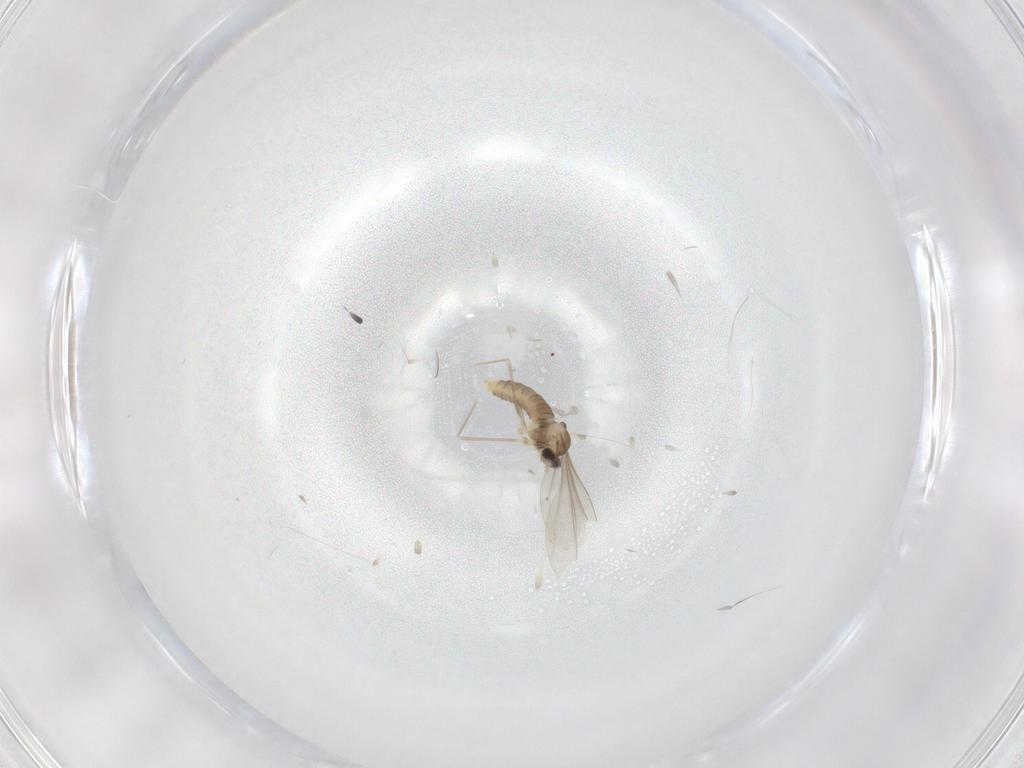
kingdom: Animalia
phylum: Arthropoda
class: Insecta
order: Diptera
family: Cecidomyiidae
